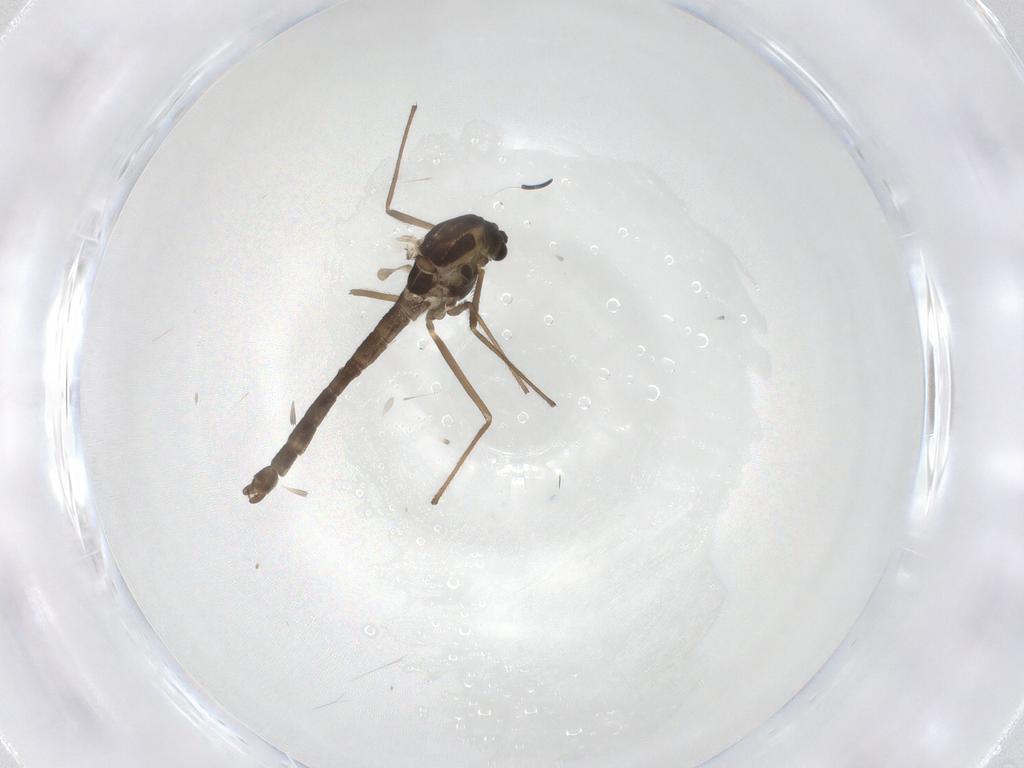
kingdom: Animalia
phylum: Arthropoda
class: Insecta
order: Diptera
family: Chironomidae
